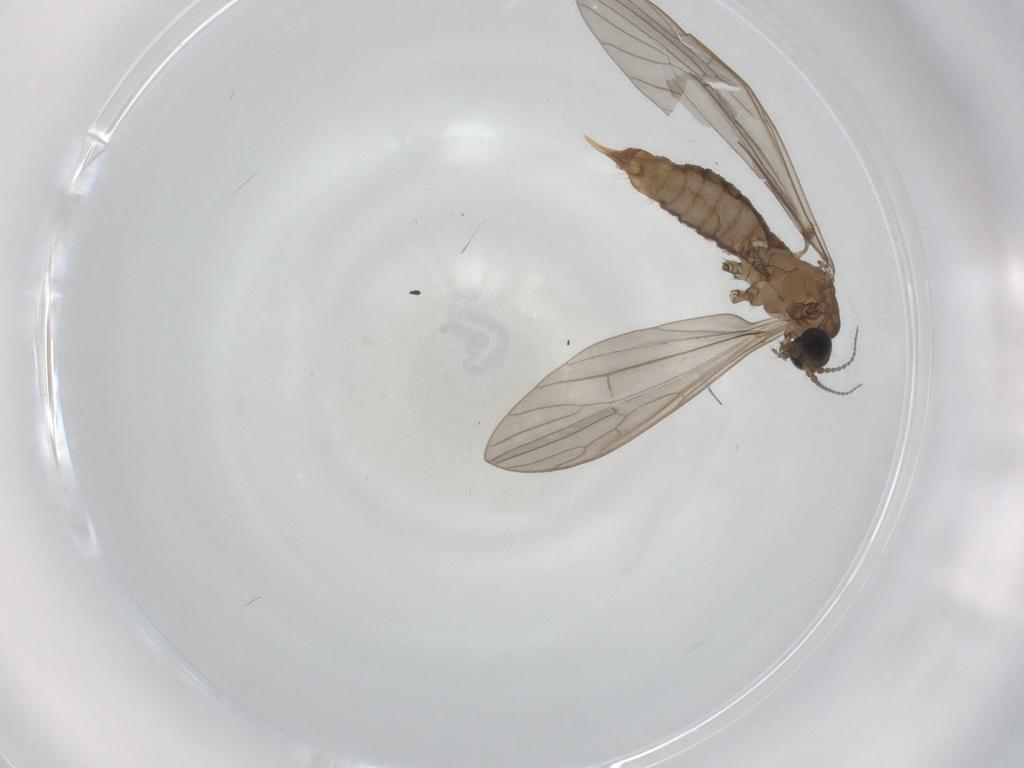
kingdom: Animalia
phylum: Arthropoda
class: Insecta
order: Diptera
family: Limoniidae
